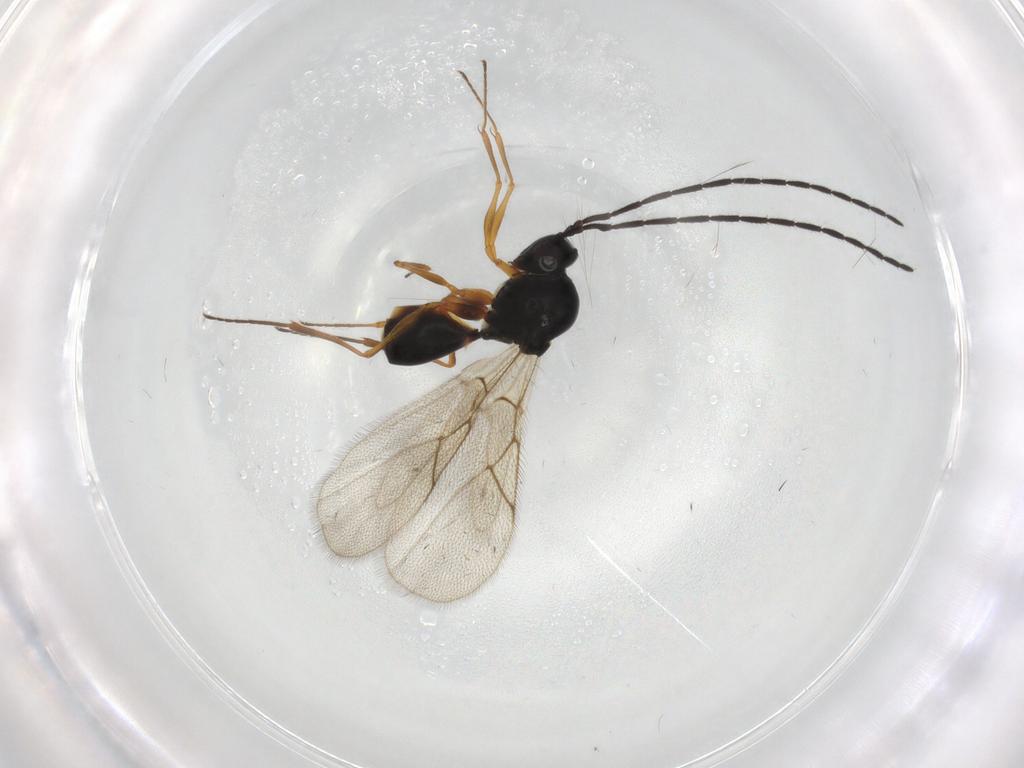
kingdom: Animalia
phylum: Arthropoda
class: Insecta
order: Hymenoptera
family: Figitidae
